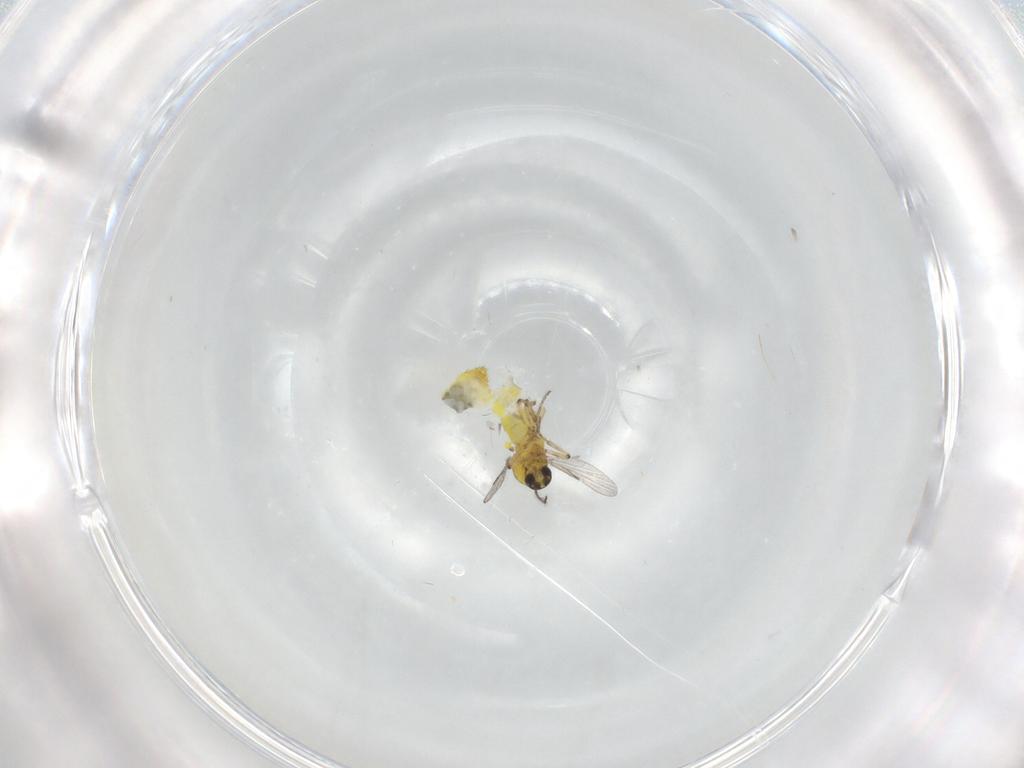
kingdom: Animalia
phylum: Arthropoda
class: Insecta
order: Diptera
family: Ceratopogonidae
